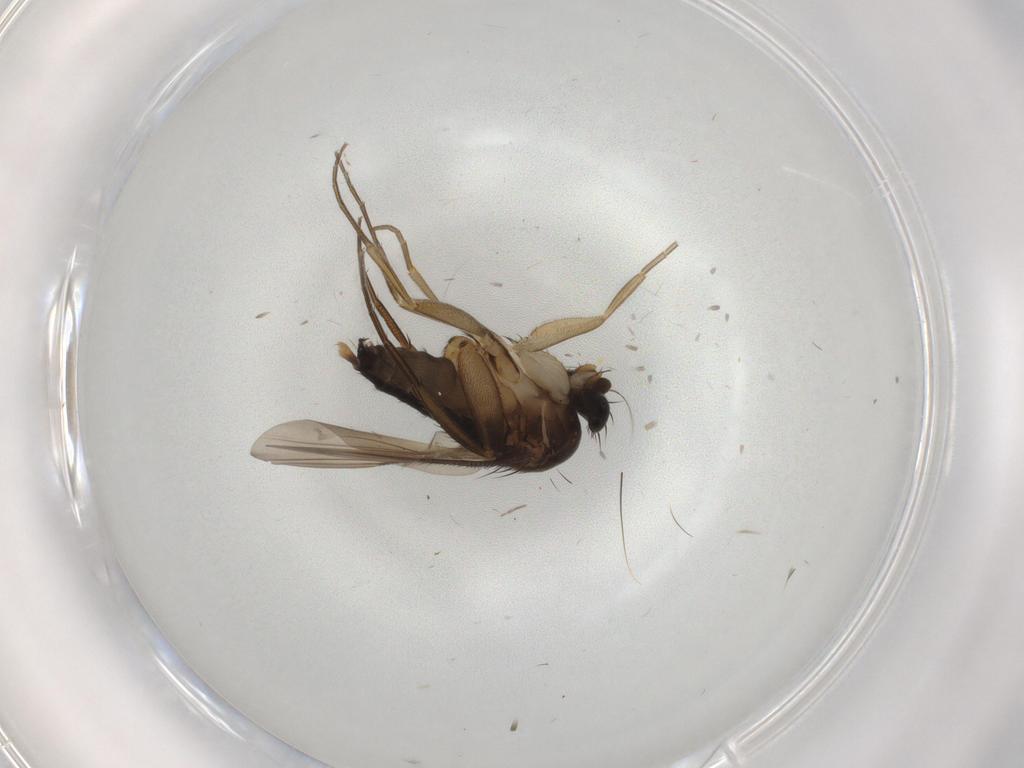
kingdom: Animalia
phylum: Arthropoda
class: Insecta
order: Diptera
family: Phoridae
